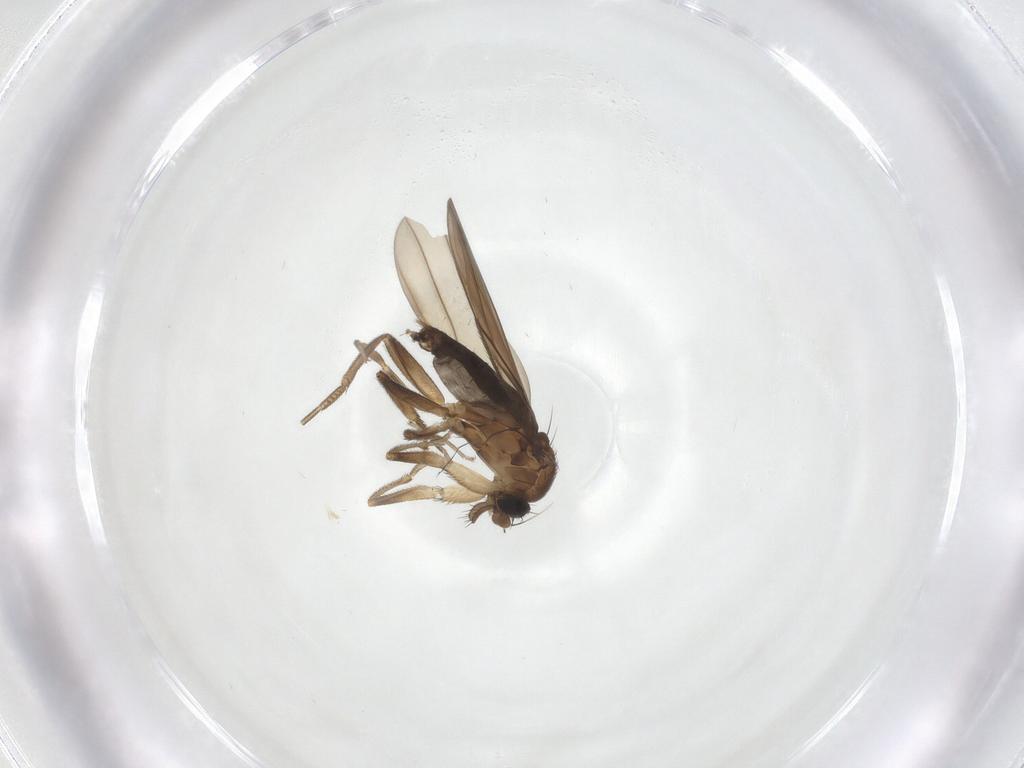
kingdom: Animalia
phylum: Arthropoda
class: Insecta
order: Diptera
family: Phoridae
